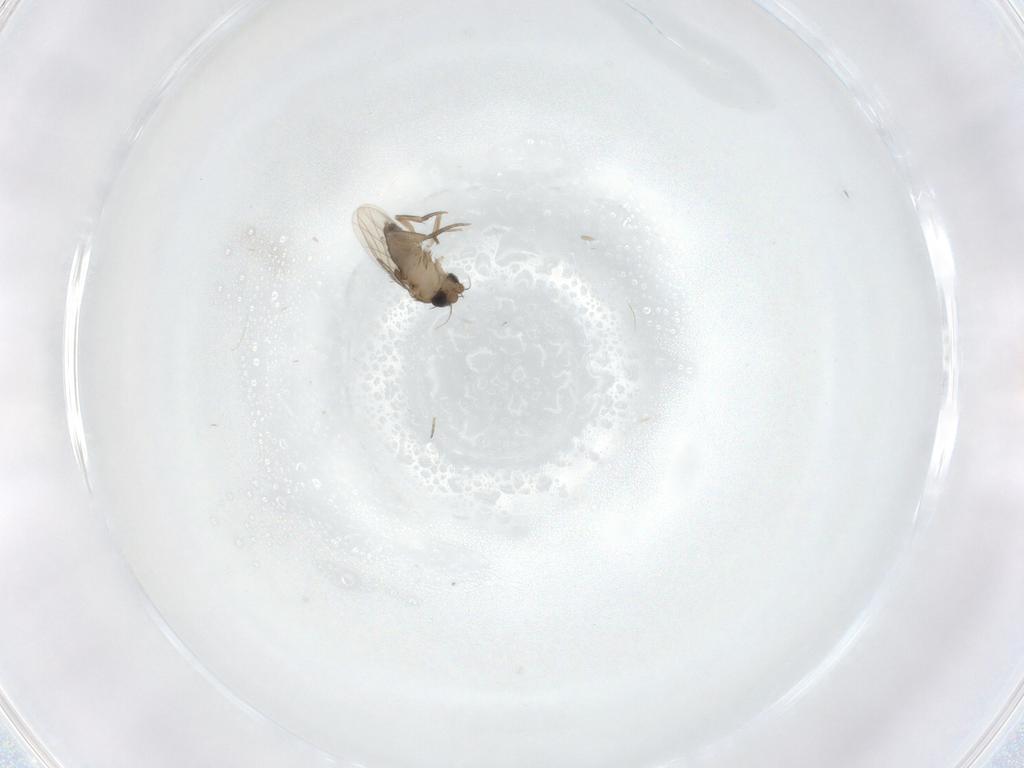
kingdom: Animalia
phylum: Arthropoda
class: Insecta
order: Diptera
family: Phoridae
